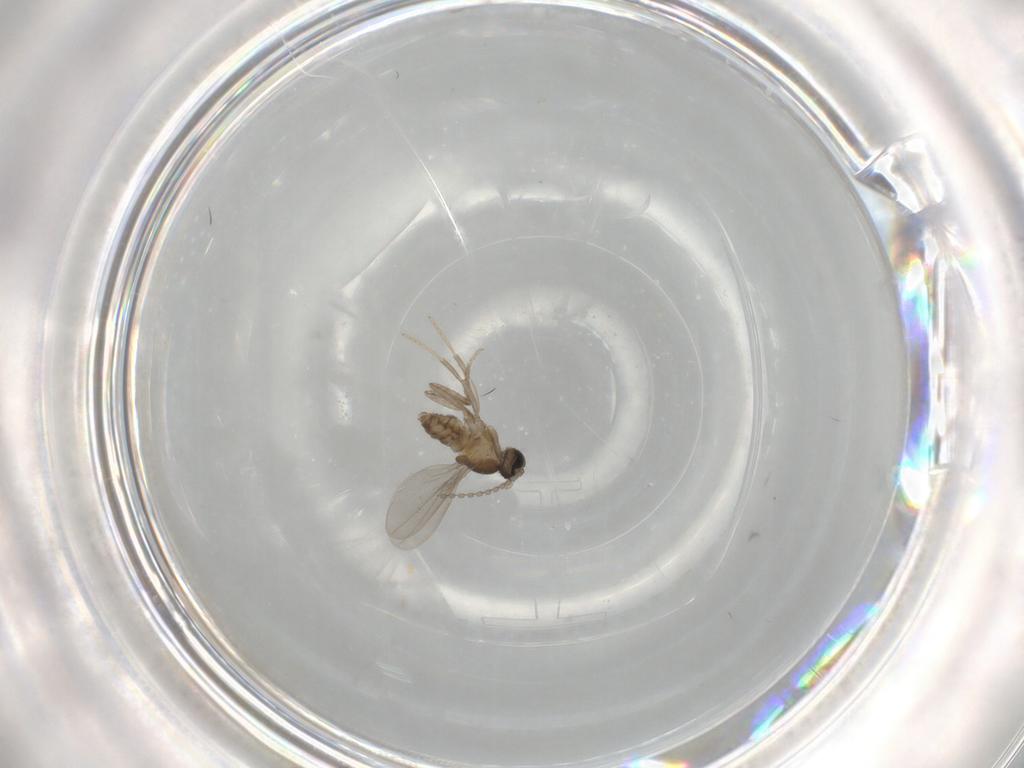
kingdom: Animalia
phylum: Arthropoda
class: Insecta
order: Diptera
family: Cecidomyiidae
